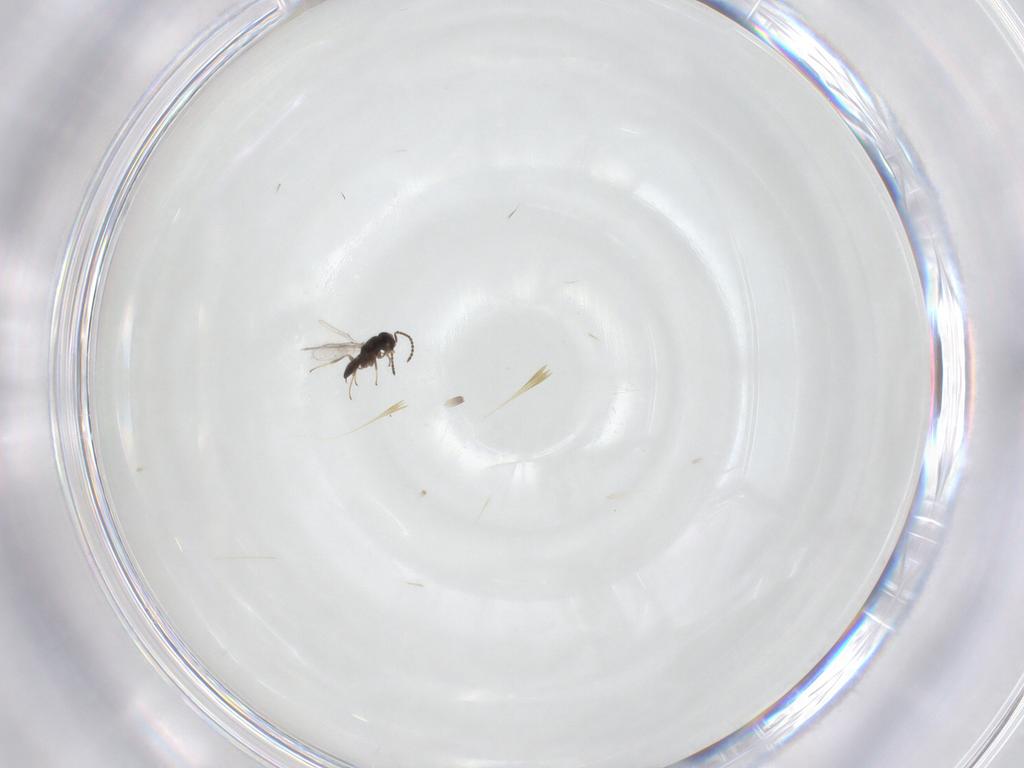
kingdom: Animalia
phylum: Arthropoda
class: Insecta
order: Hymenoptera
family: Scelionidae
